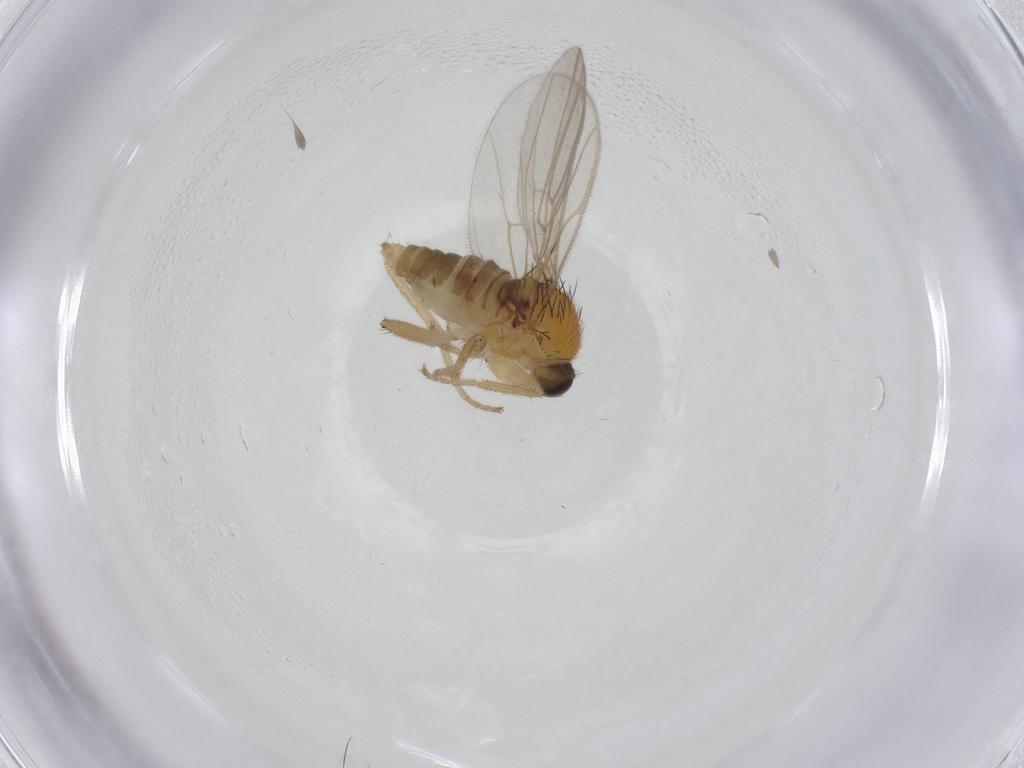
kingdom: Animalia
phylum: Arthropoda
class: Insecta
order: Diptera
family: Hybotidae
